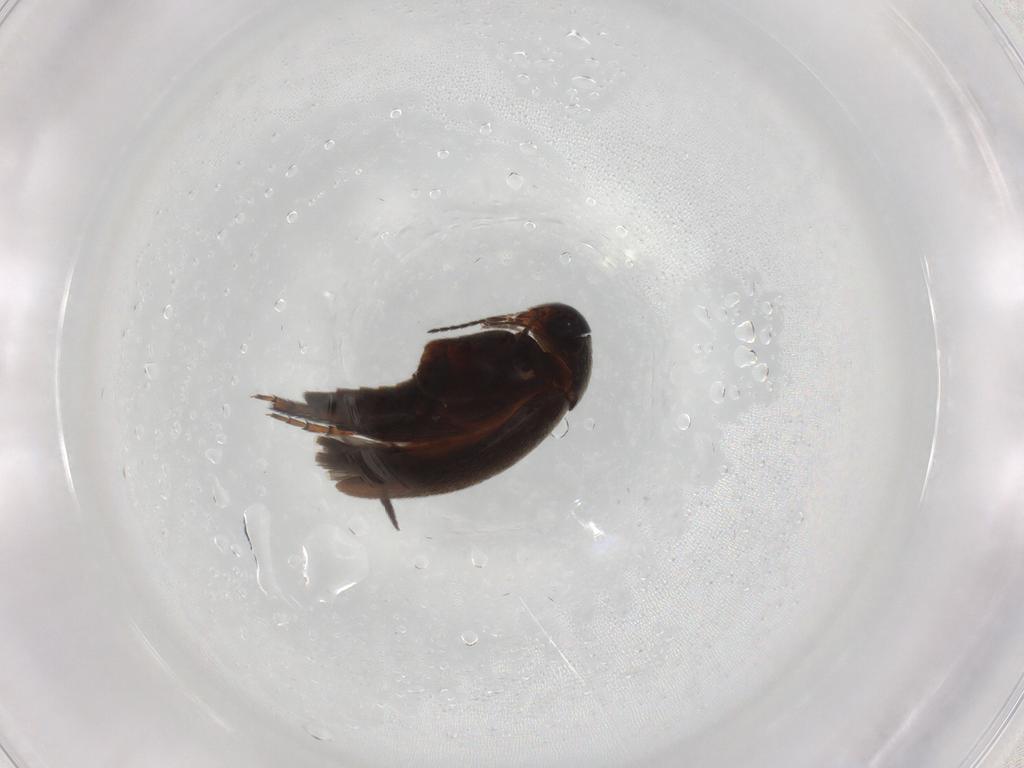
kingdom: Animalia
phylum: Arthropoda
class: Insecta
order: Coleoptera
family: Mordellidae
